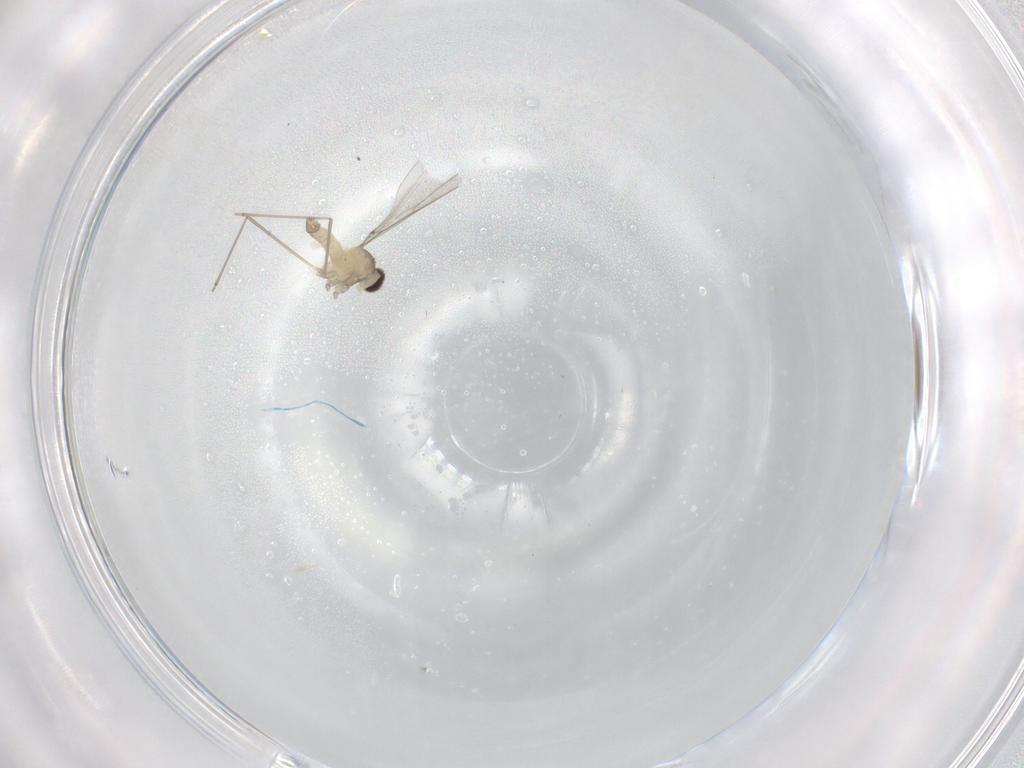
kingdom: Animalia
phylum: Arthropoda
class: Insecta
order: Diptera
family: Cecidomyiidae
